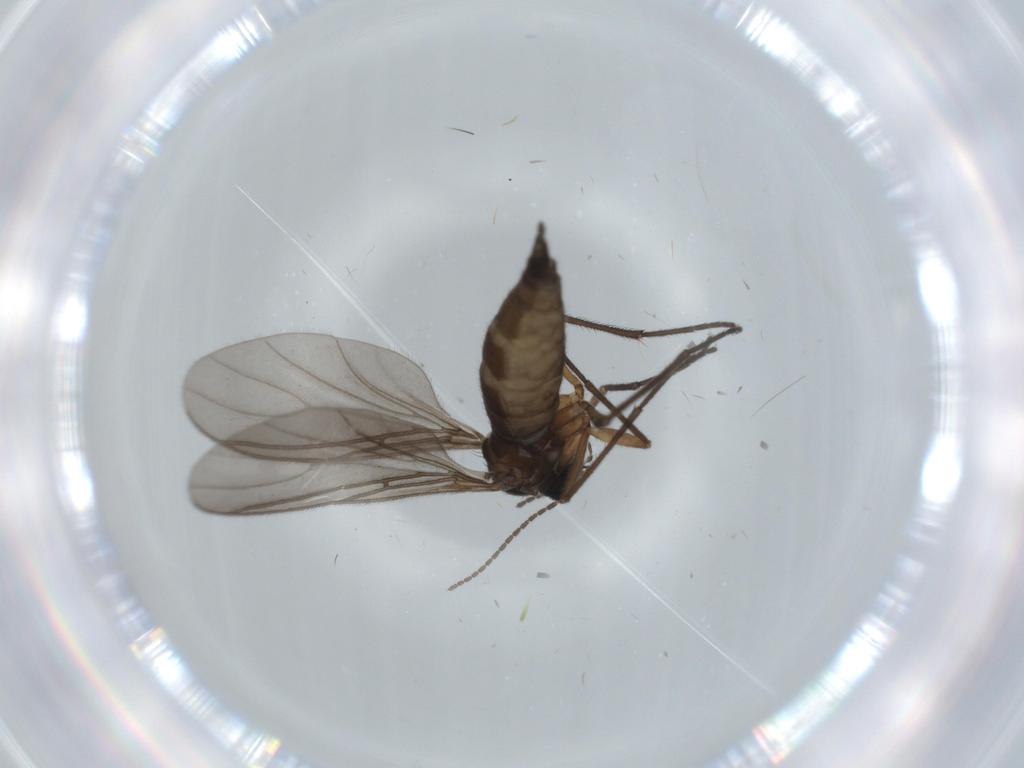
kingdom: Animalia
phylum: Arthropoda
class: Insecta
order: Diptera
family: Sciaridae
